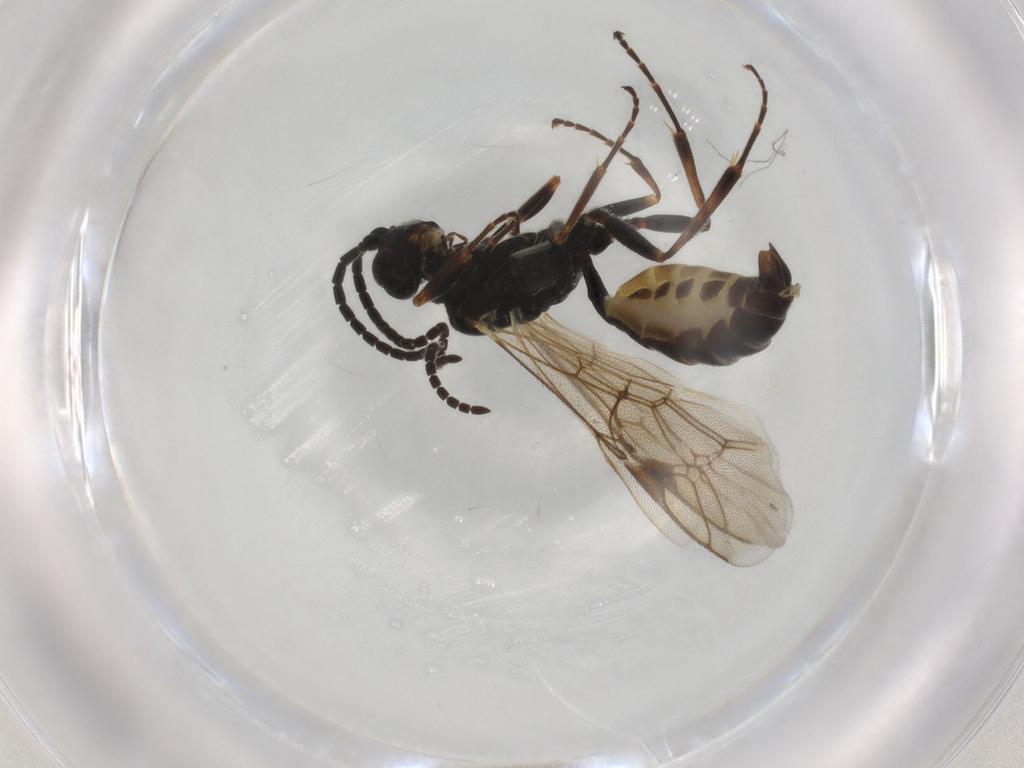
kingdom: Animalia
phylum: Arthropoda
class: Insecta
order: Hymenoptera
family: Ichneumonidae
